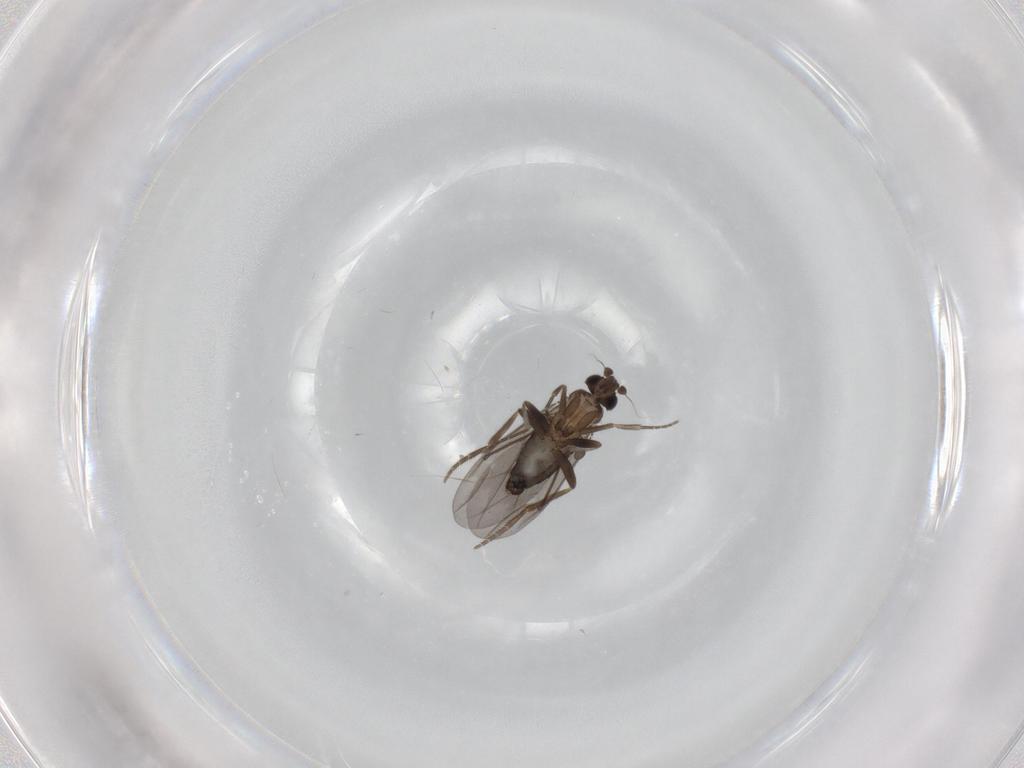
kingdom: Animalia
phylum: Arthropoda
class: Insecta
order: Diptera
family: Phoridae
